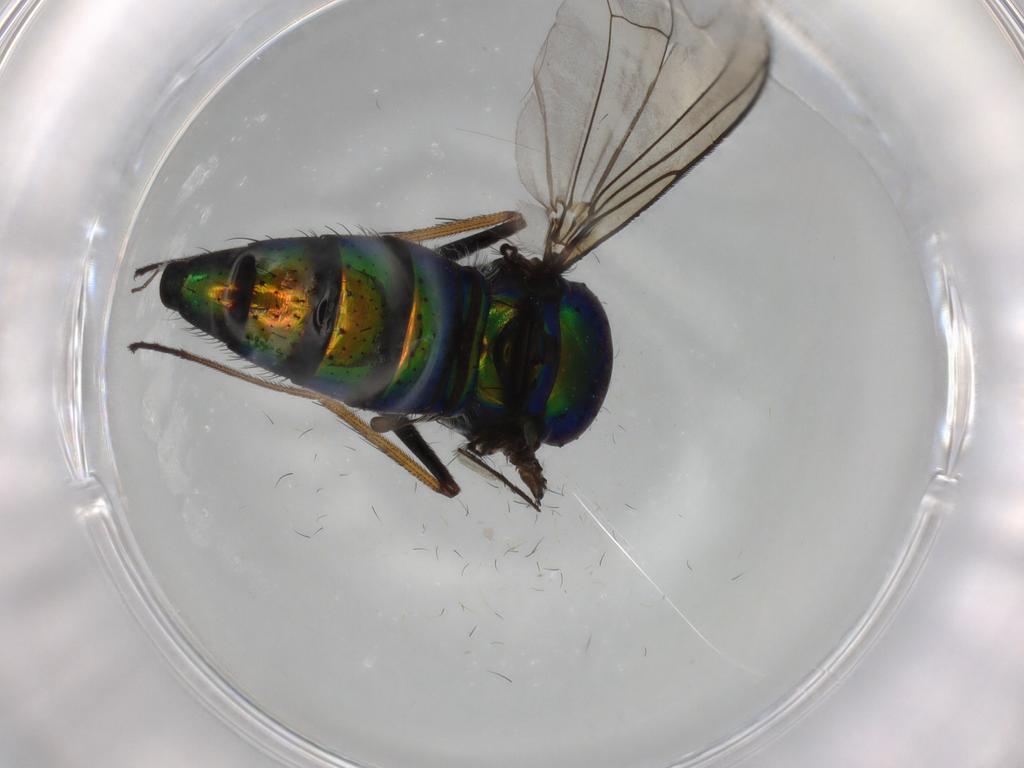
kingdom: Animalia
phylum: Arthropoda
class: Insecta
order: Diptera
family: Dolichopodidae
